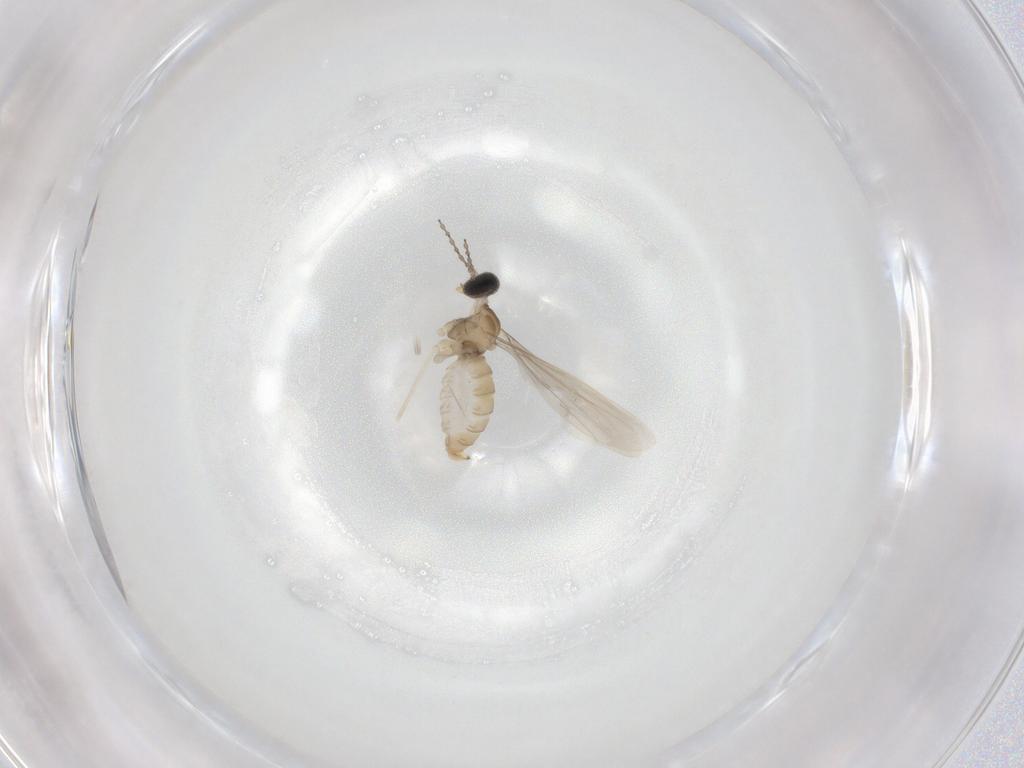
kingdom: Animalia
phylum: Arthropoda
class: Insecta
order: Diptera
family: Cecidomyiidae
